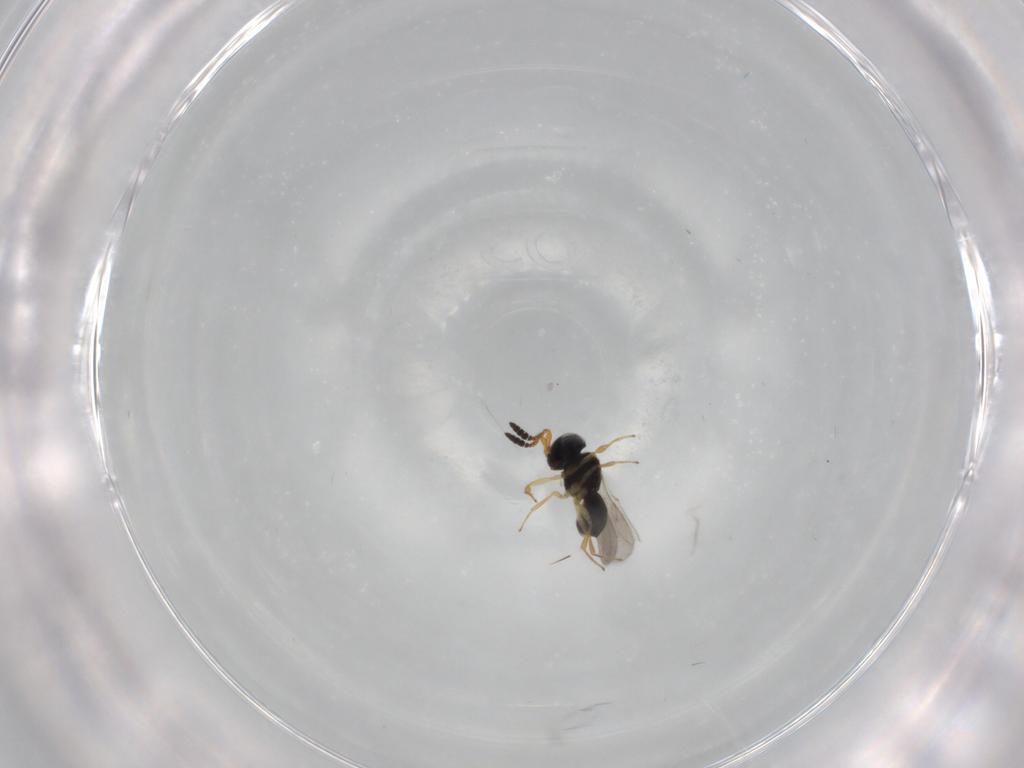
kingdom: Animalia
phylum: Arthropoda
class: Insecta
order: Hymenoptera
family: Scelionidae
